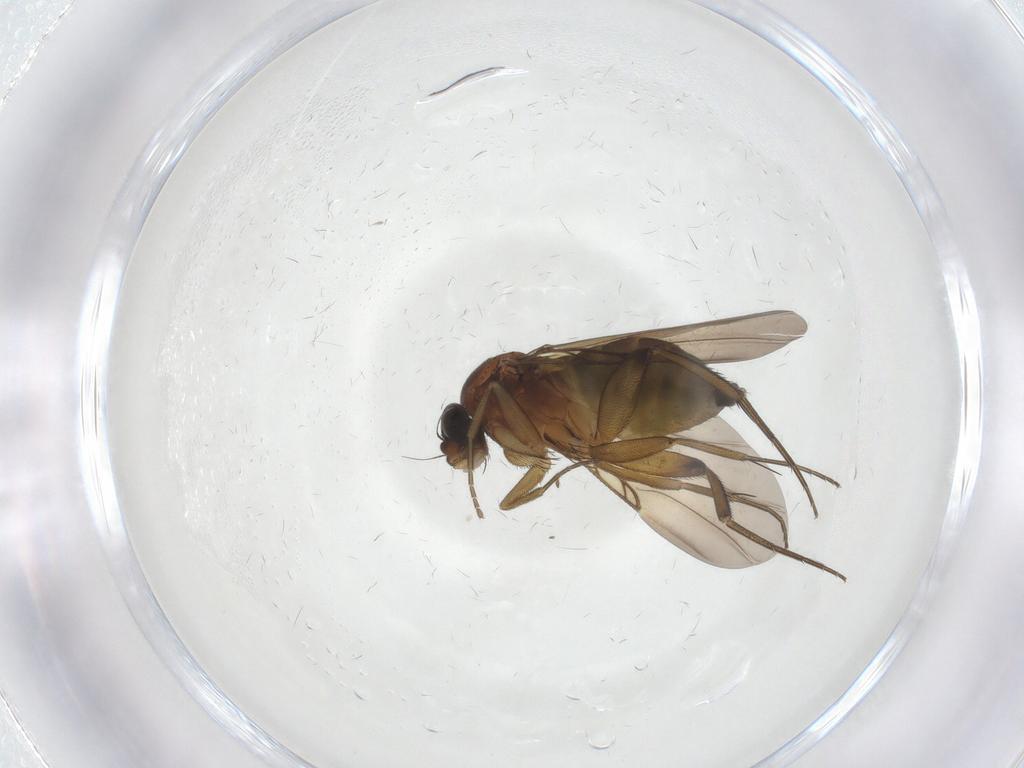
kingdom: Animalia
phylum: Arthropoda
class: Insecta
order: Diptera
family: Phoridae
